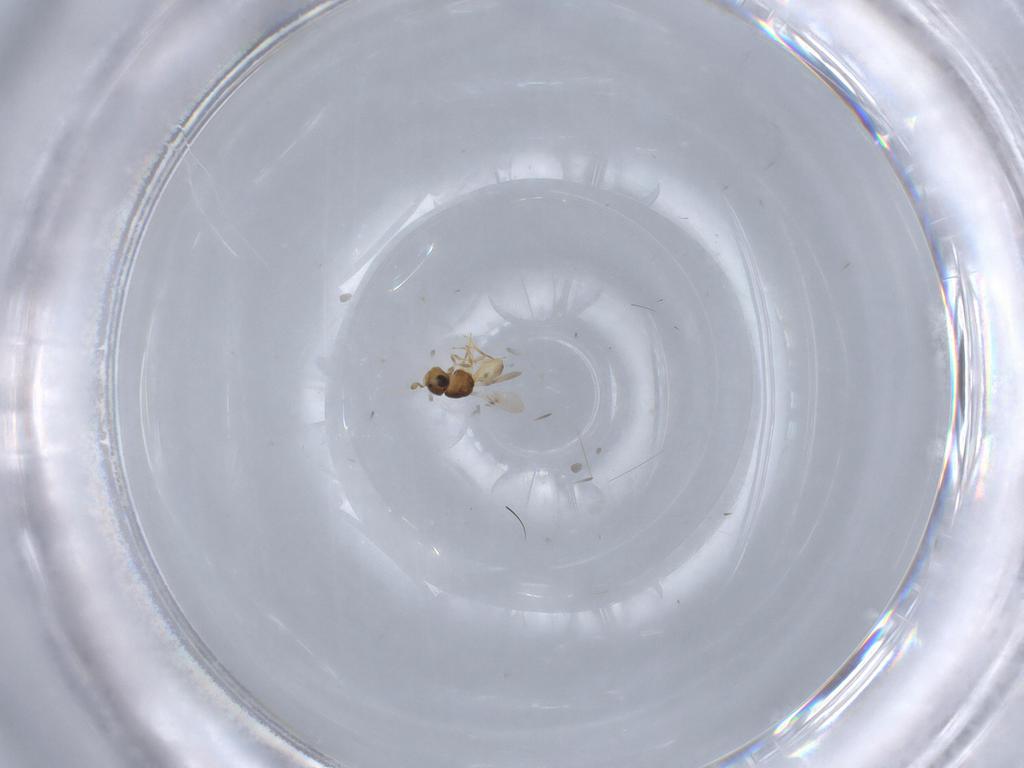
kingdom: Animalia
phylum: Arthropoda
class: Insecta
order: Hymenoptera
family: Scelionidae
